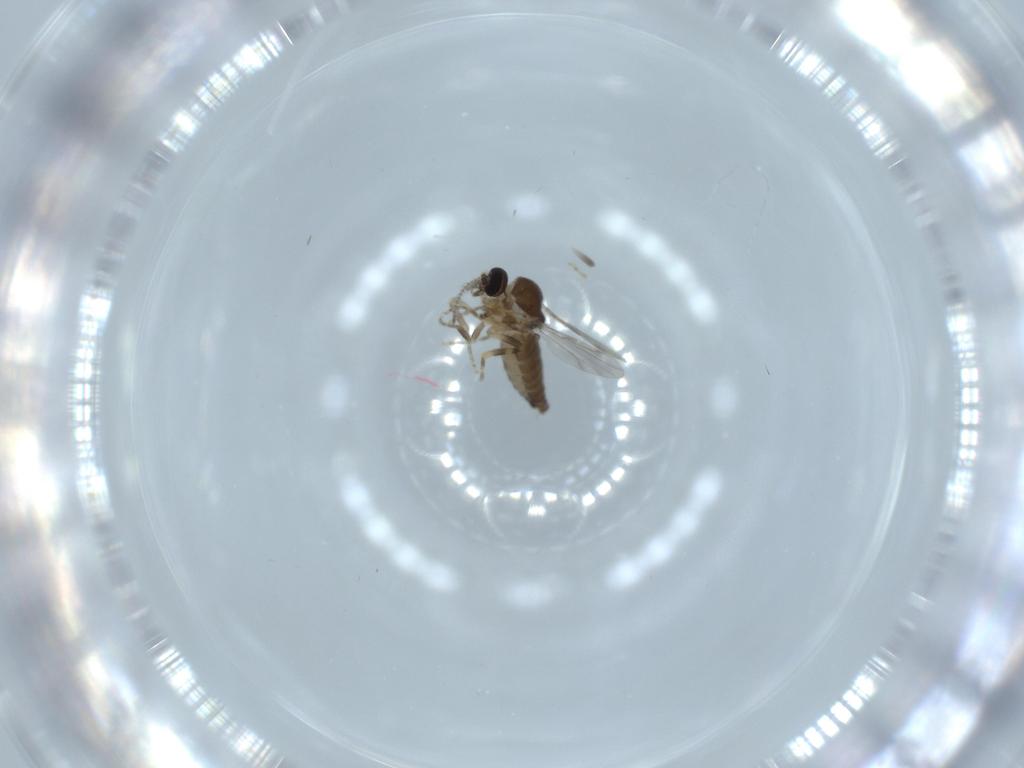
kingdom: Animalia
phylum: Arthropoda
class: Insecta
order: Diptera
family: Ceratopogonidae
